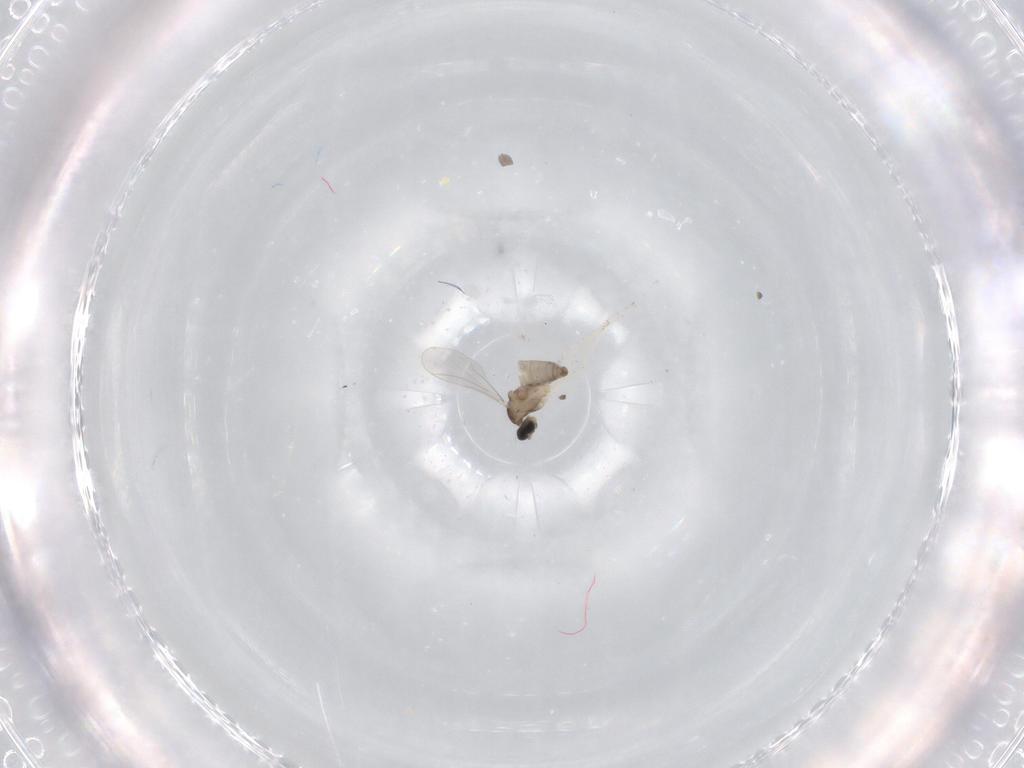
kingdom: Animalia
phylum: Arthropoda
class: Insecta
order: Diptera
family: Cecidomyiidae
